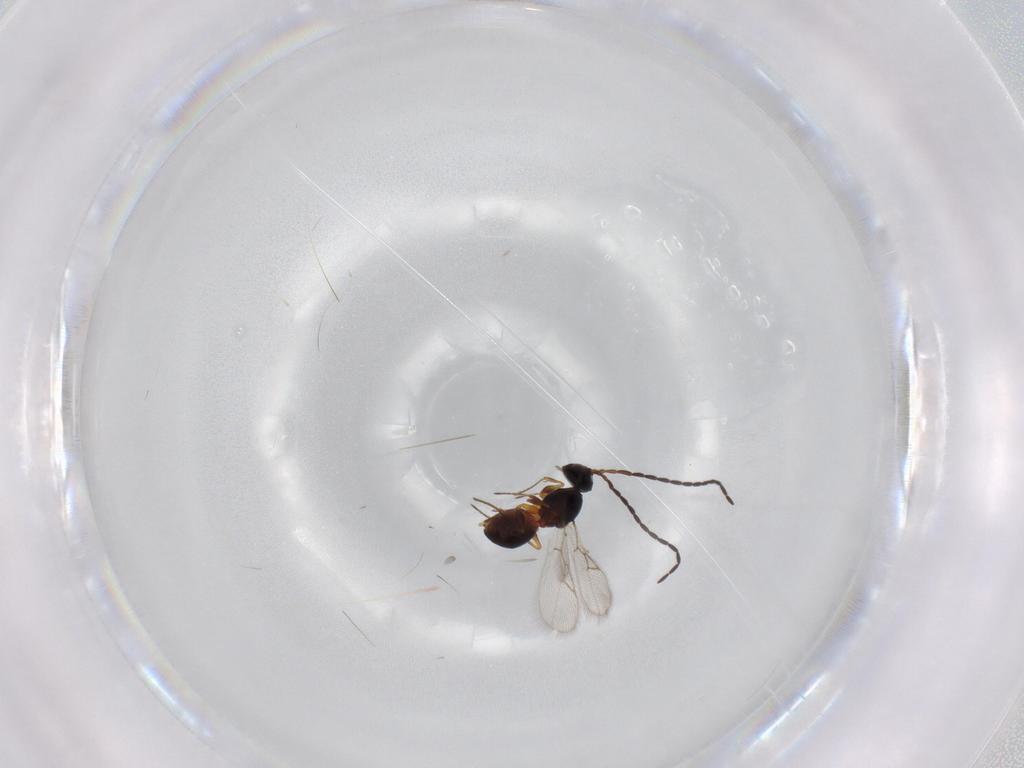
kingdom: Animalia
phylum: Arthropoda
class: Insecta
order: Hymenoptera
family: Figitidae
